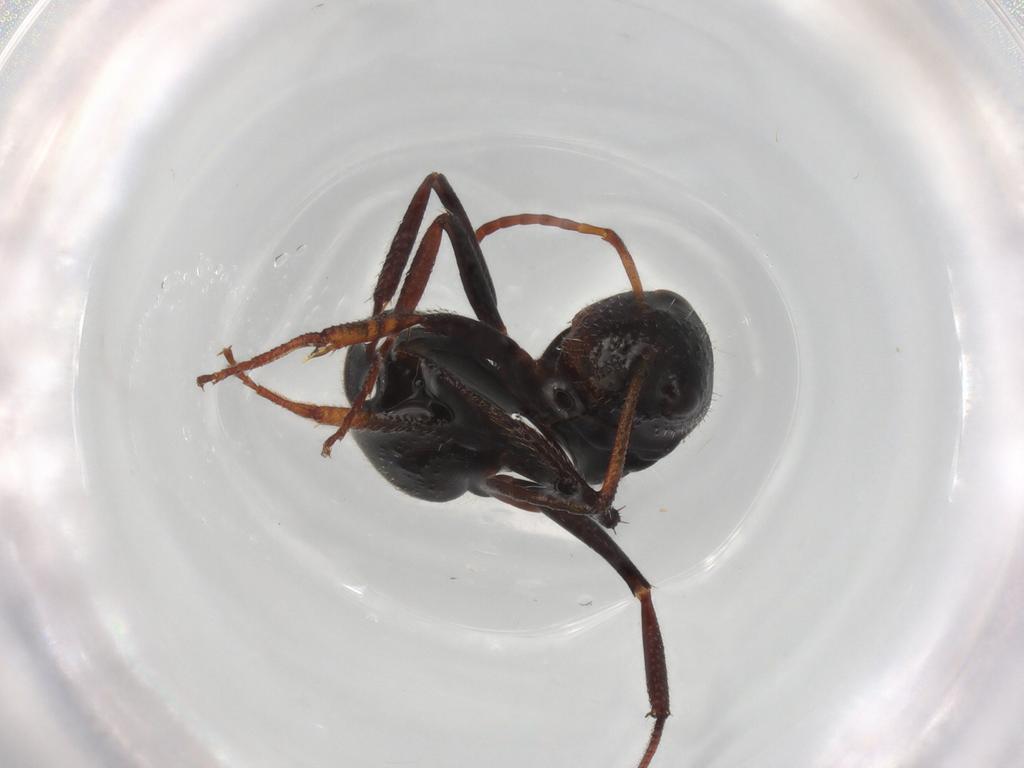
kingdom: Animalia
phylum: Arthropoda
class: Insecta
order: Hymenoptera
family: Formicidae
